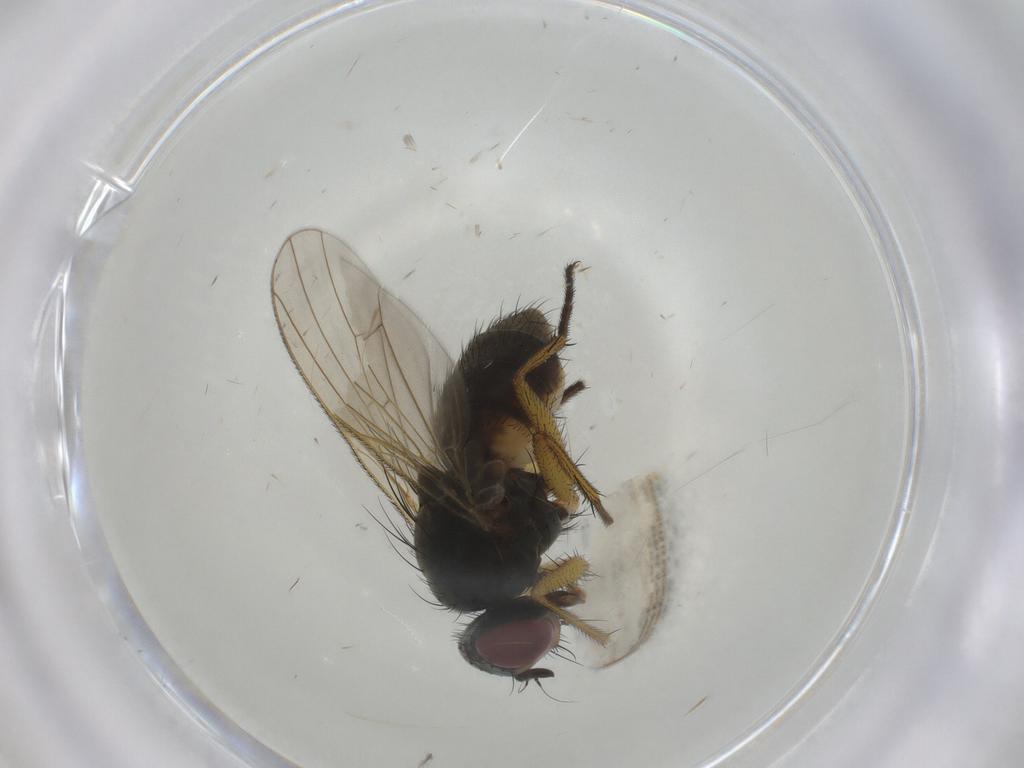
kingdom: Animalia
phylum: Arthropoda
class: Insecta
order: Diptera
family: Muscidae
